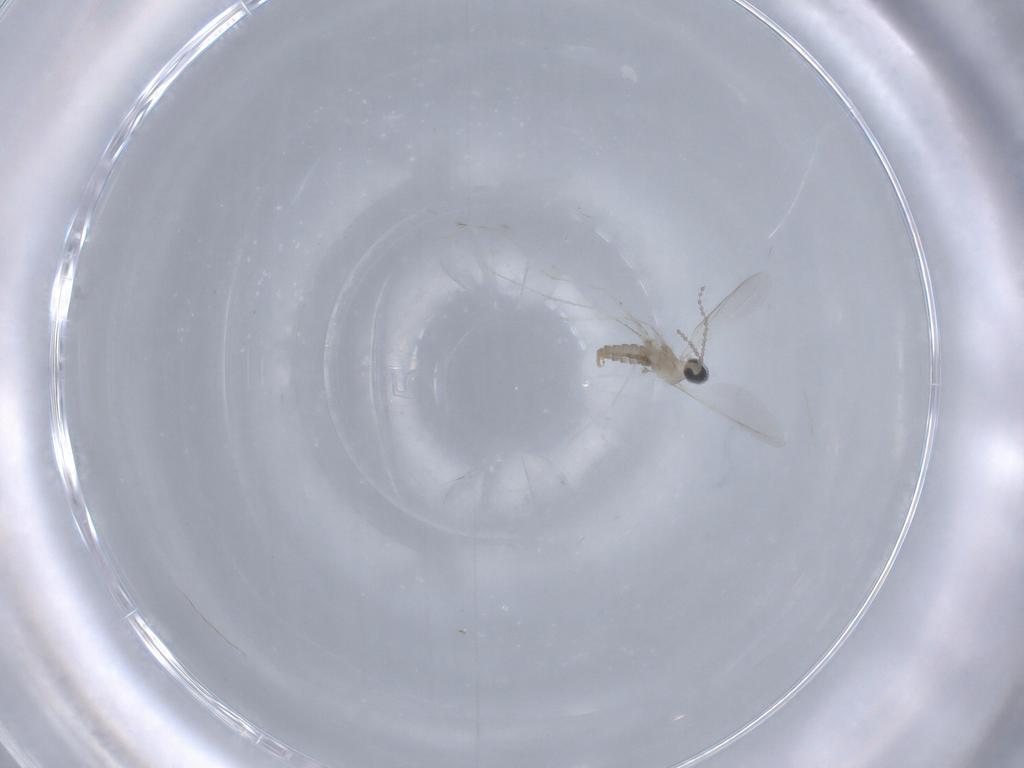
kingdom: Animalia
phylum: Arthropoda
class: Insecta
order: Diptera
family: Cecidomyiidae
